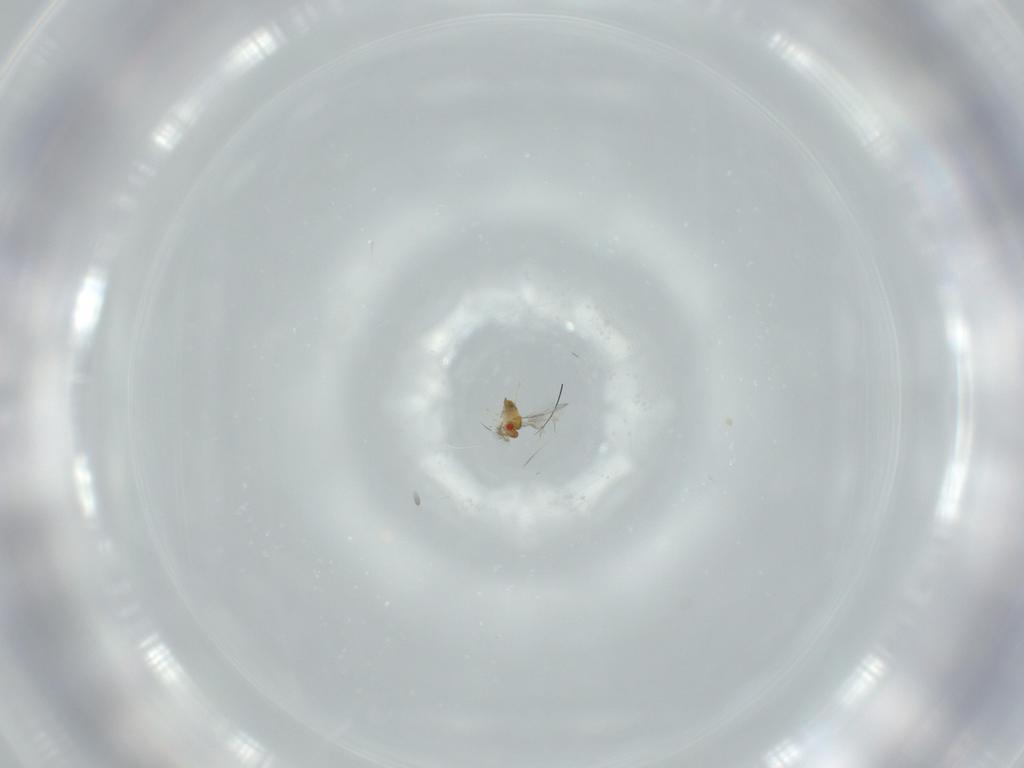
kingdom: Animalia
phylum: Arthropoda
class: Insecta
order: Hymenoptera
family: Trichogrammatidae
